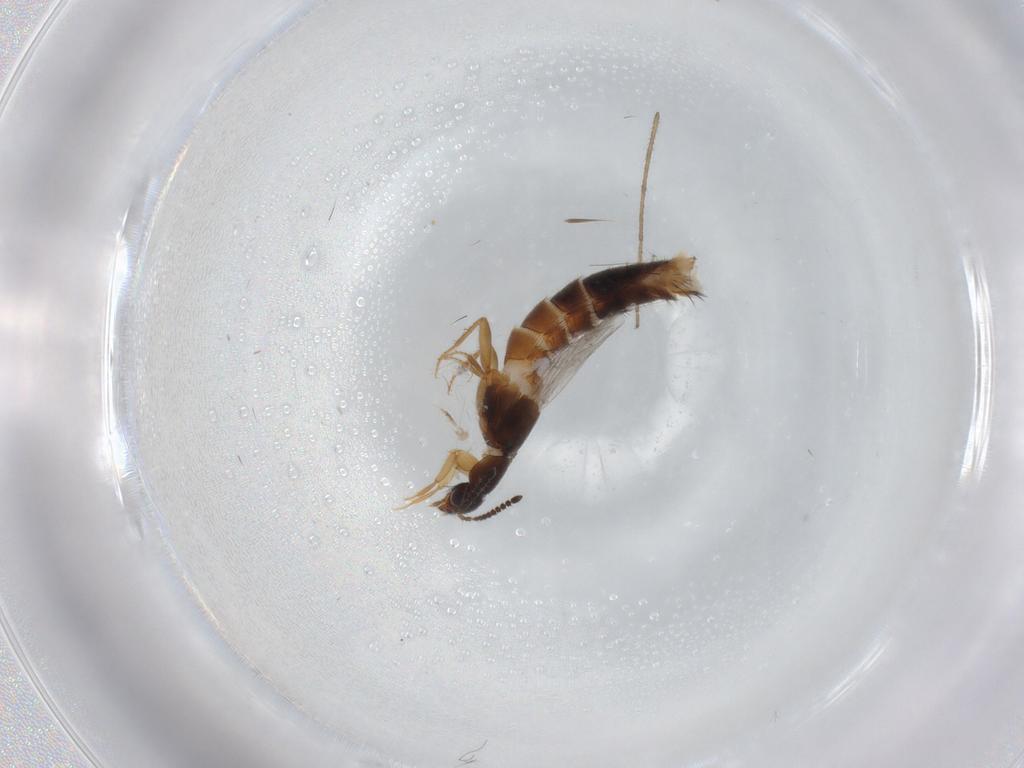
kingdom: Animalia
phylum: Arthropoda
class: Insecta
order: Coleoptera
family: Staphylinidae
